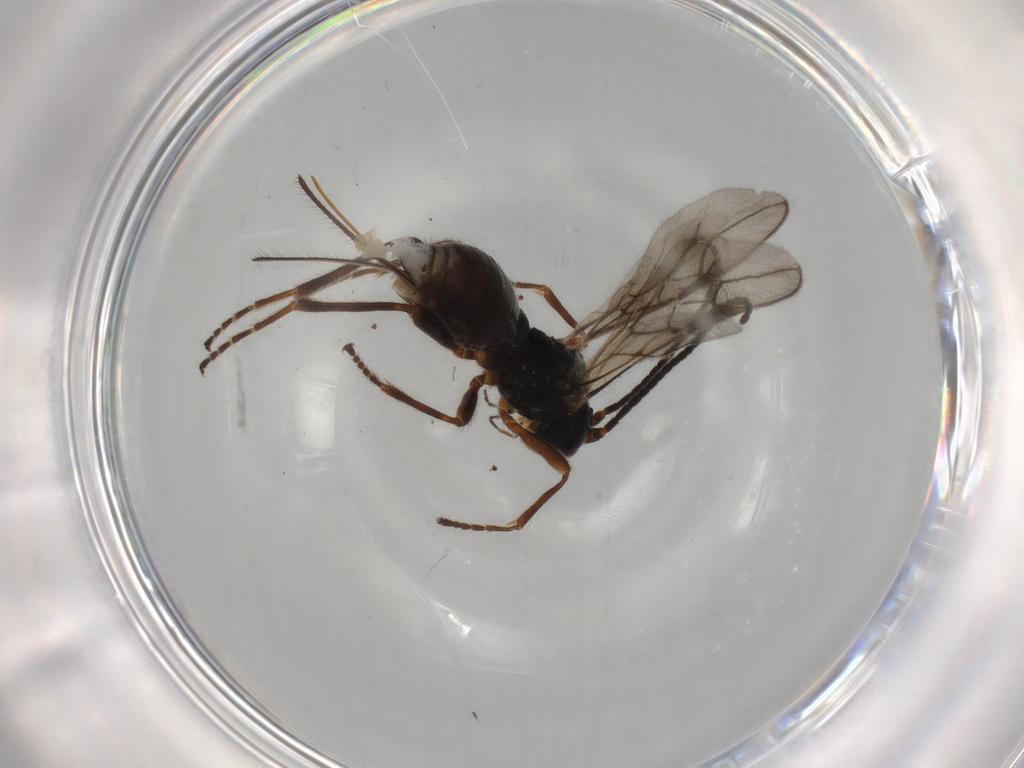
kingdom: Animalia
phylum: Arthropoda
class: Insecta
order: Hymenoptera
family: Braconidae
